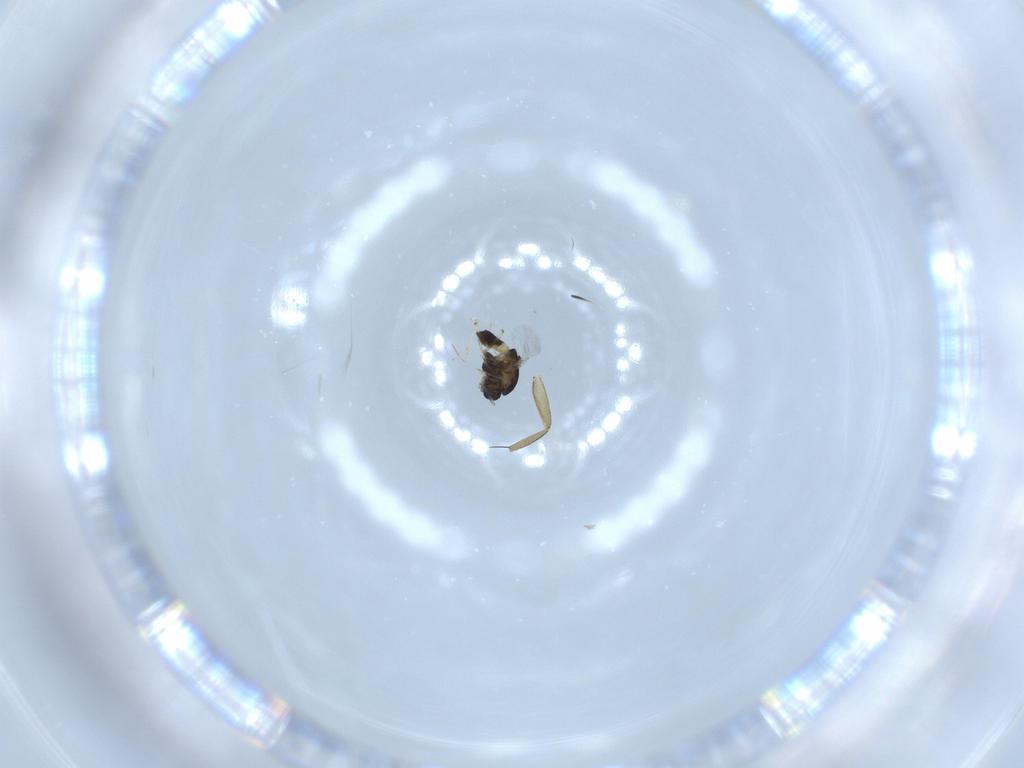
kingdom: Animalia
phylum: Arthropoda
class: Insecta
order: Diptera
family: Chironomidae
